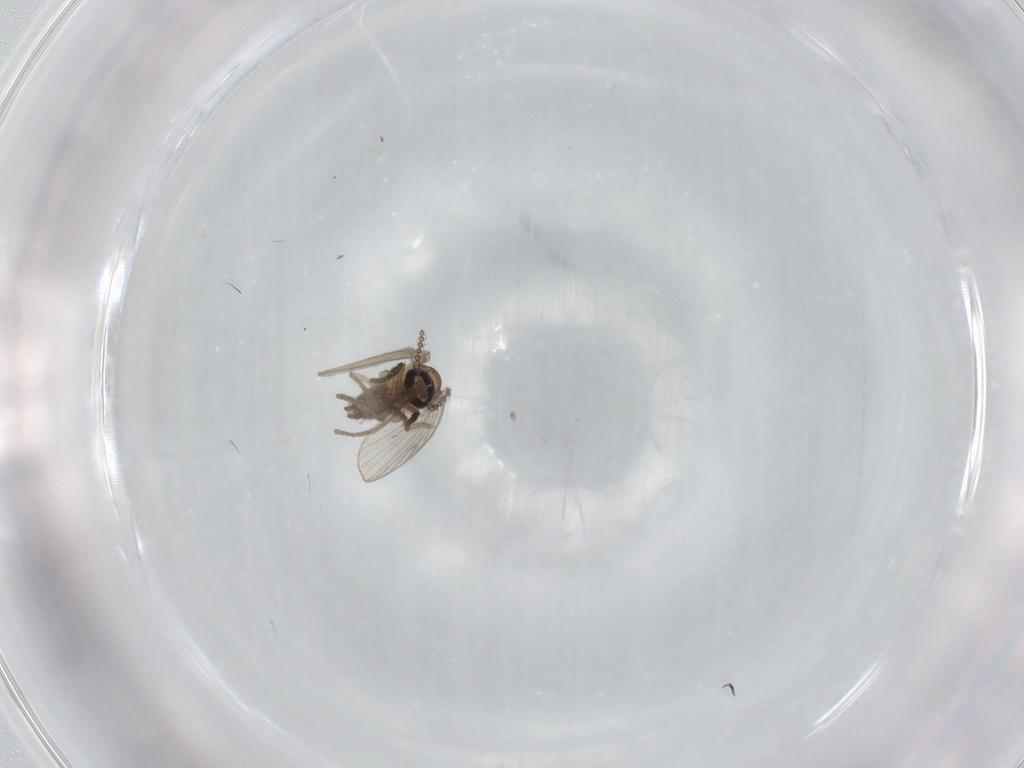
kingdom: Animalia
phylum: Arthropoda
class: Insecta
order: Diptera
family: Psychodidae
